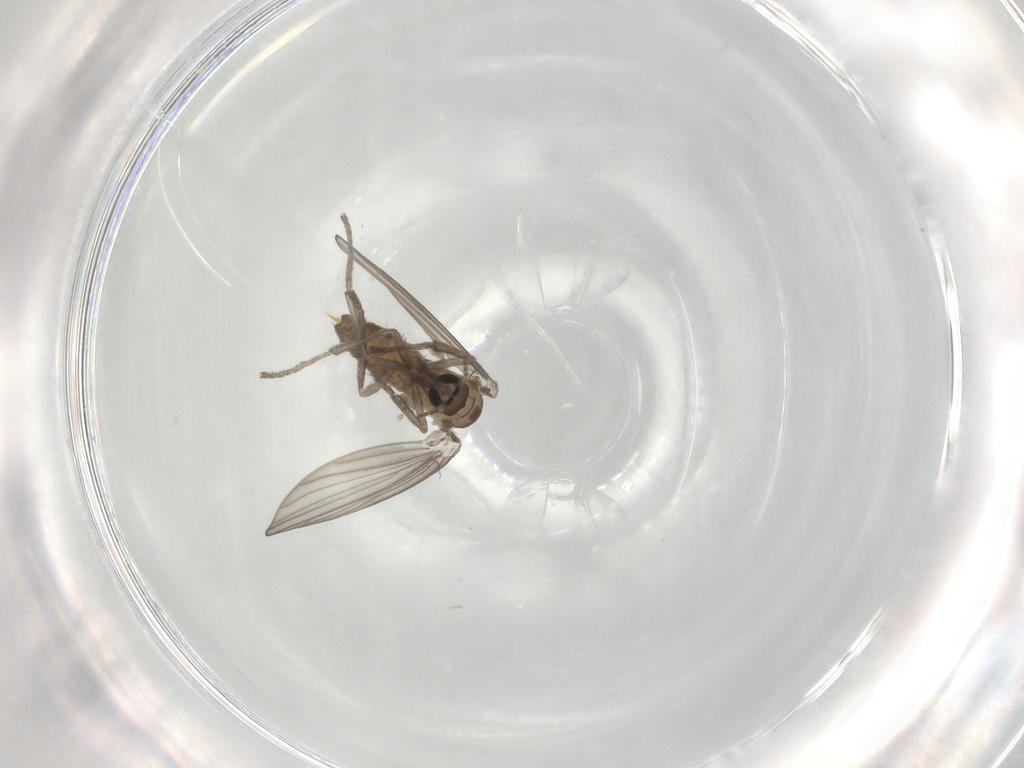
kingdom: Animalia
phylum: Arthropoda
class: Insecta
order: Diptera
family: Psychodidae
